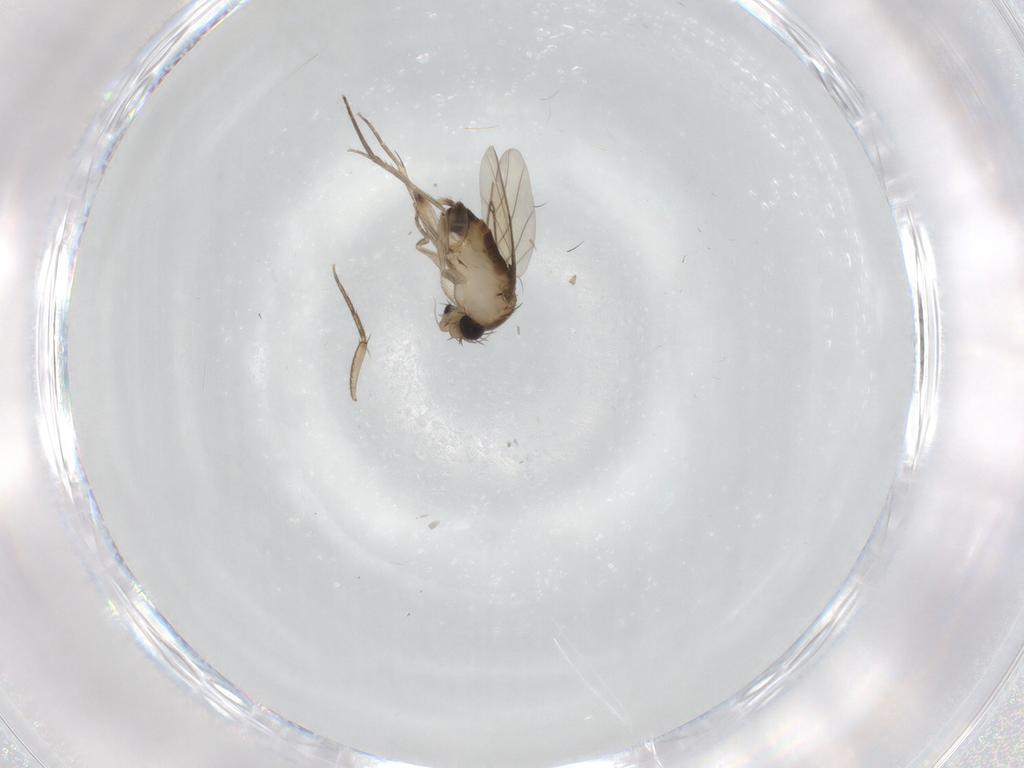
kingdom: Animalia
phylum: Arthropoda
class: Insecta
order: Diptera
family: Phoridae
